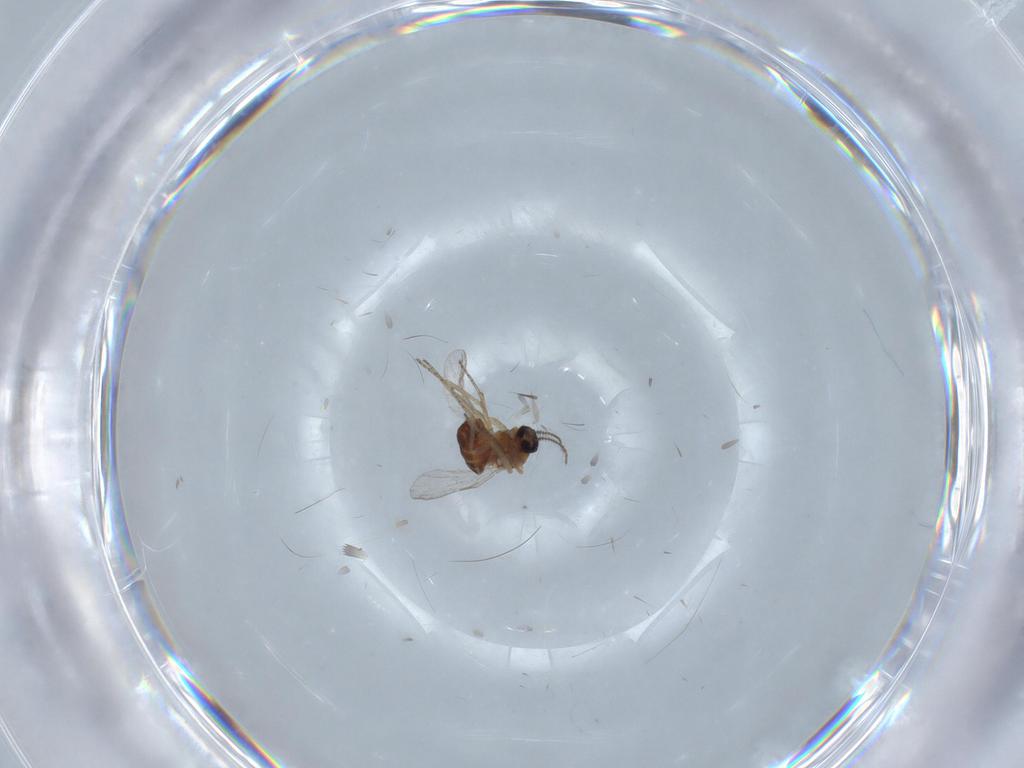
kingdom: Animalia
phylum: Arthropoda
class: Insecta
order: Diptera
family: Ceratopogonidae
